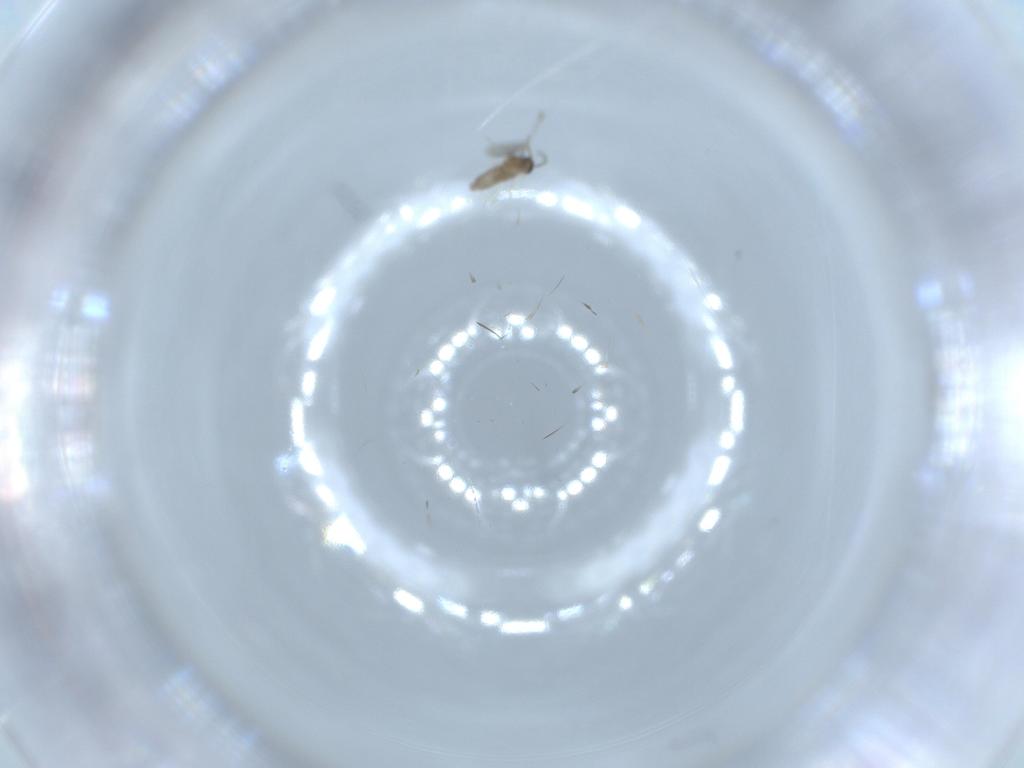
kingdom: Animalia
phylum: Arthropoda
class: Insecta
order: Diptera
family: Cecidomyiidae
